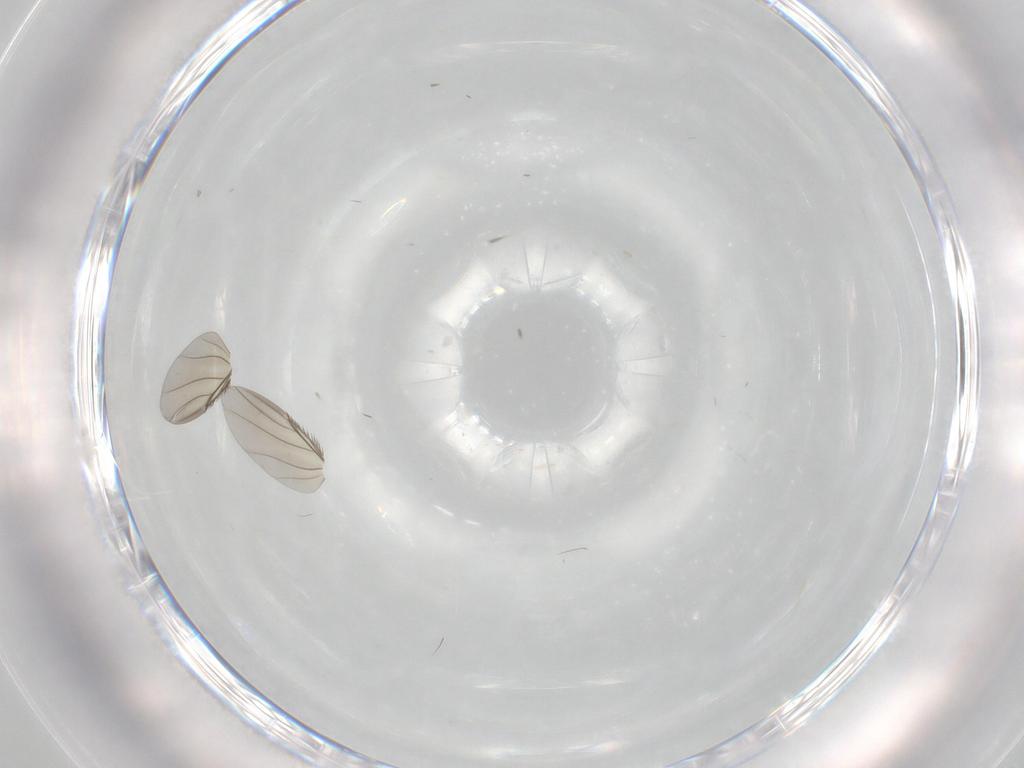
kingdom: Animalia
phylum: Arthropoda
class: Insecta
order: Diptera
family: Phoridae
